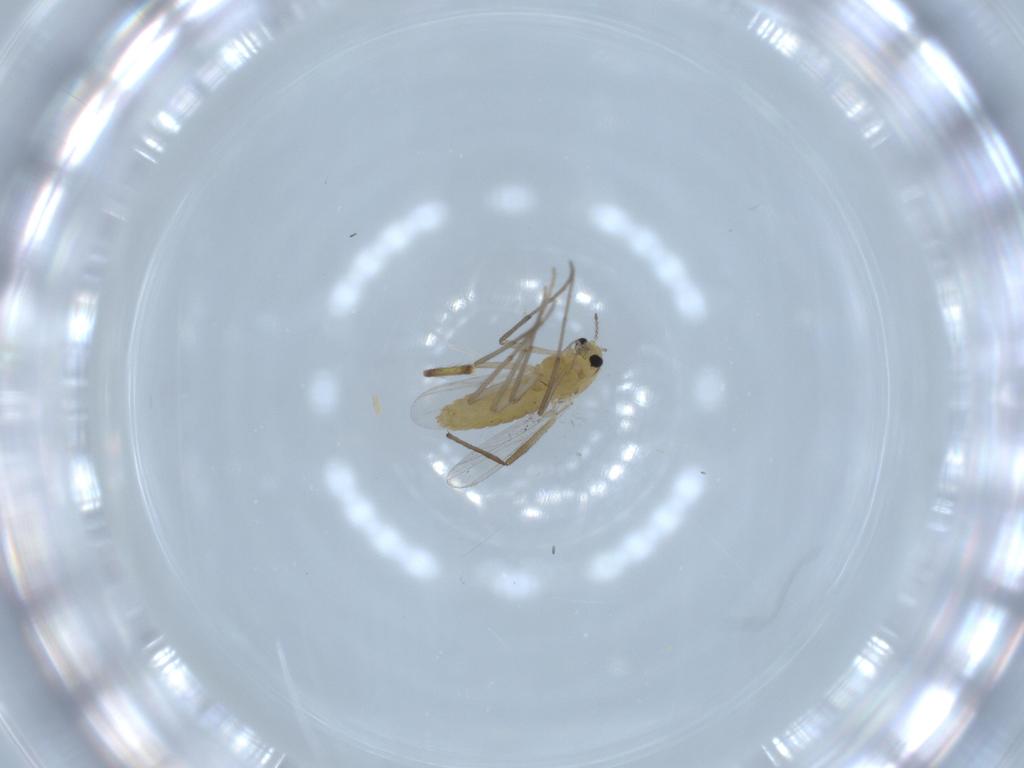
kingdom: Animalia
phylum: Arthropoda
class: Insecta
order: Diptera
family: Chironomidae
